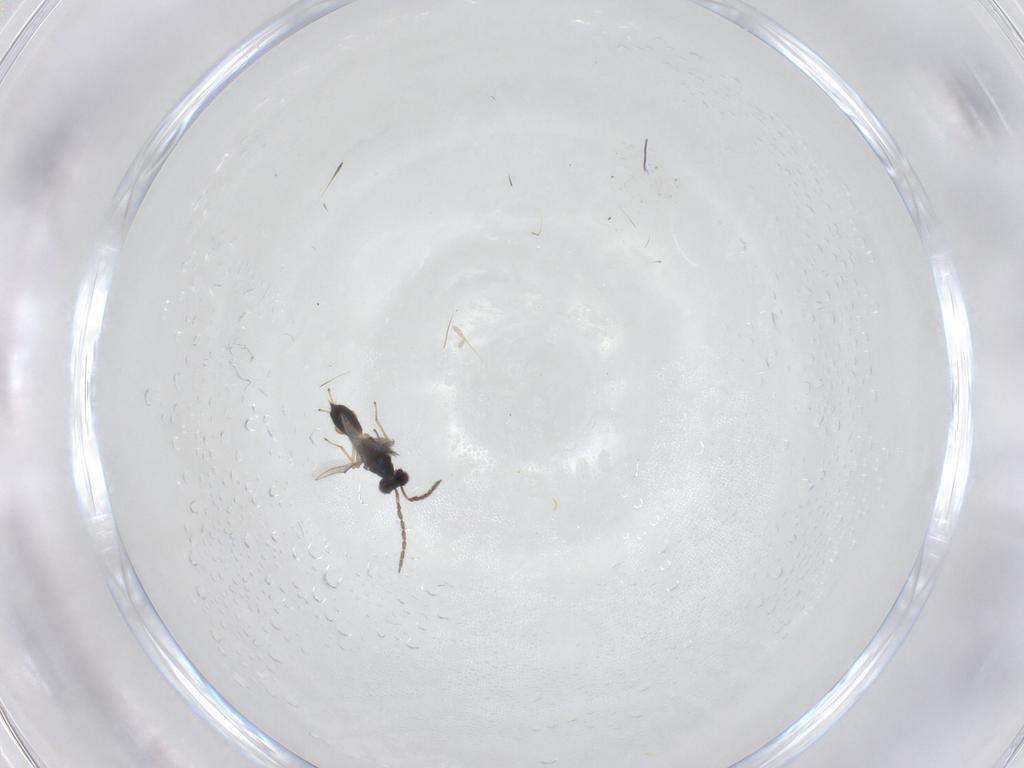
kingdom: Animalia
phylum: Arthropoda
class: Insecta
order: Hymenoptera
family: Eulophidae
